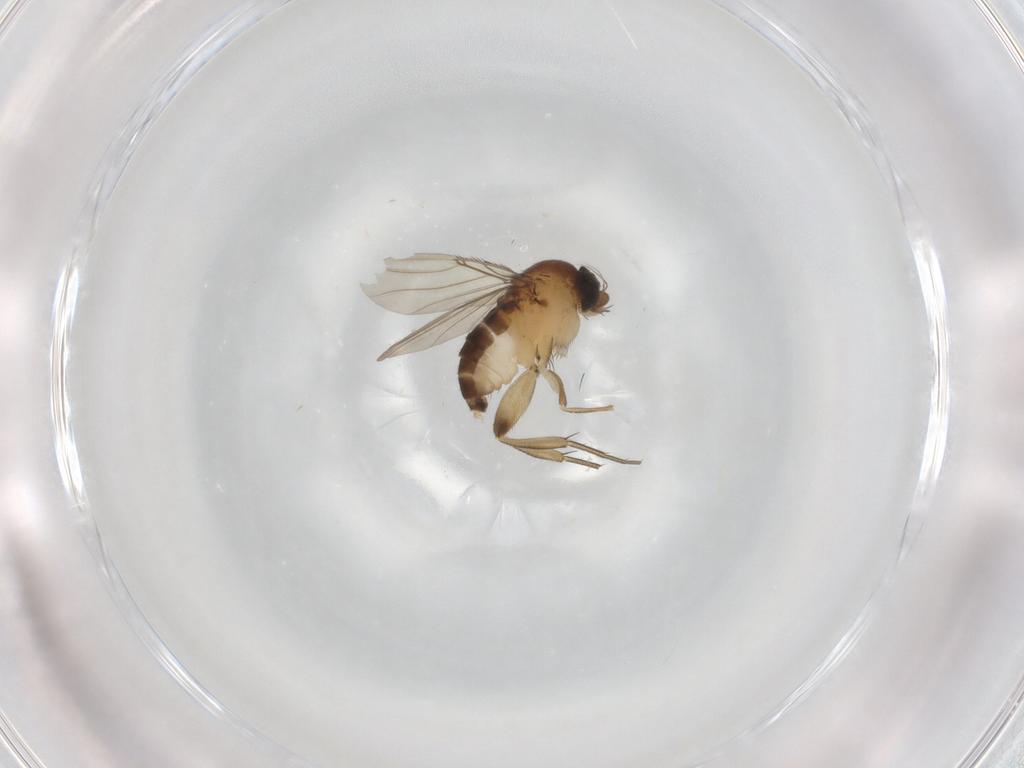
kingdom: Animalia
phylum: Arthropoda
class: Insecta
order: Diptera
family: Phoridae
